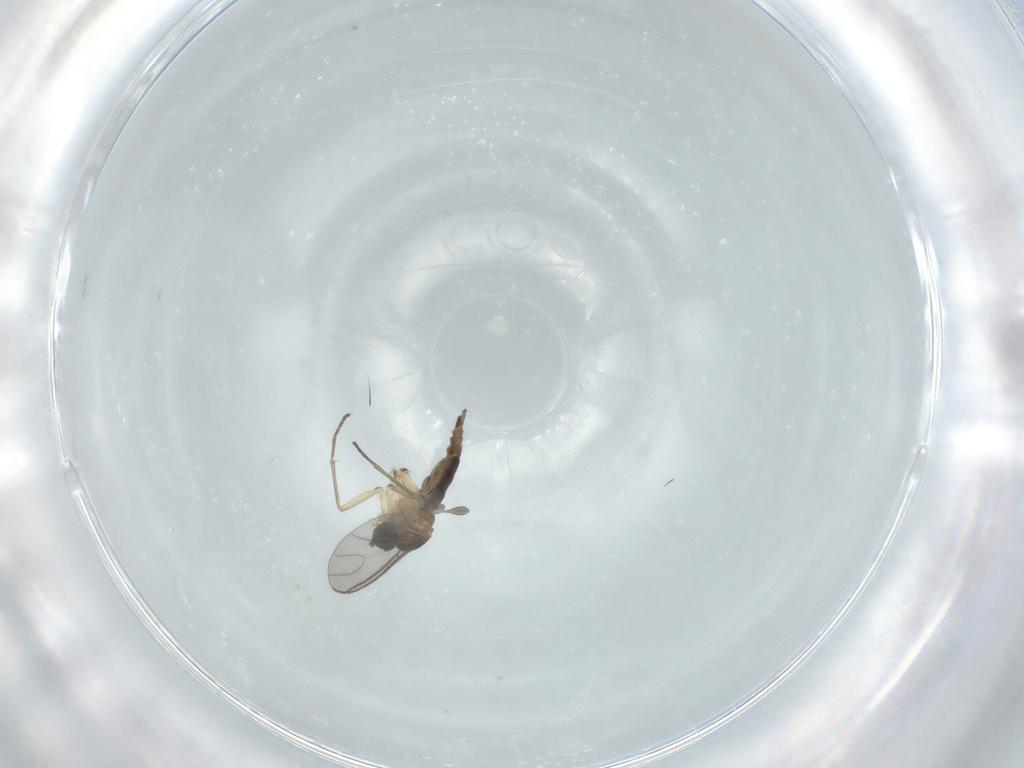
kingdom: Animalia
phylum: Arthropoda
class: Insecta
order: Diptera
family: Sciaridae
